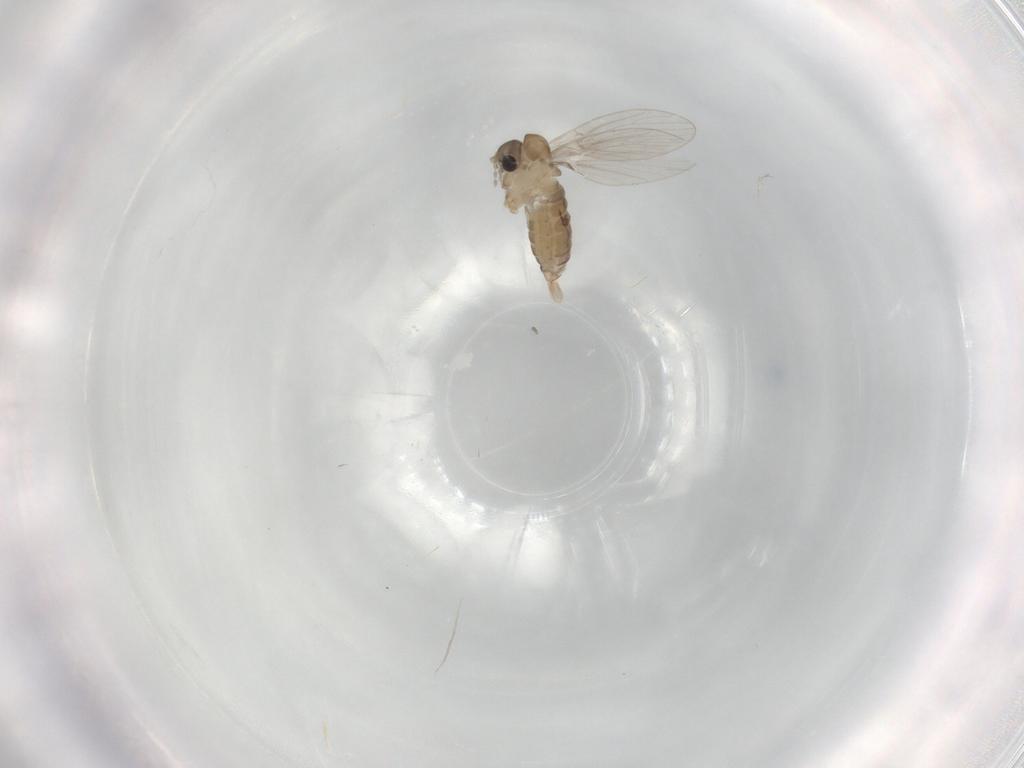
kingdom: Animalia
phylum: Arthropoda
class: Insecta
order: Diptera
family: Psychodidae
